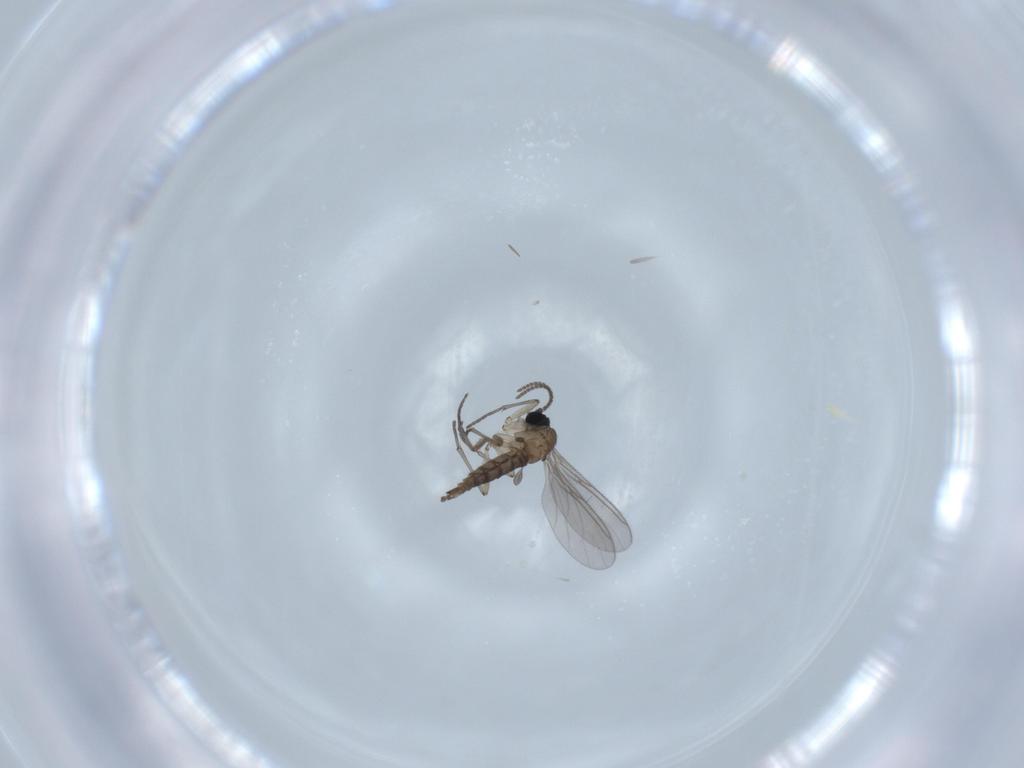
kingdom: Animalia
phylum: Arthropoda
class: Insecta
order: Diptera
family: Sciaridae
